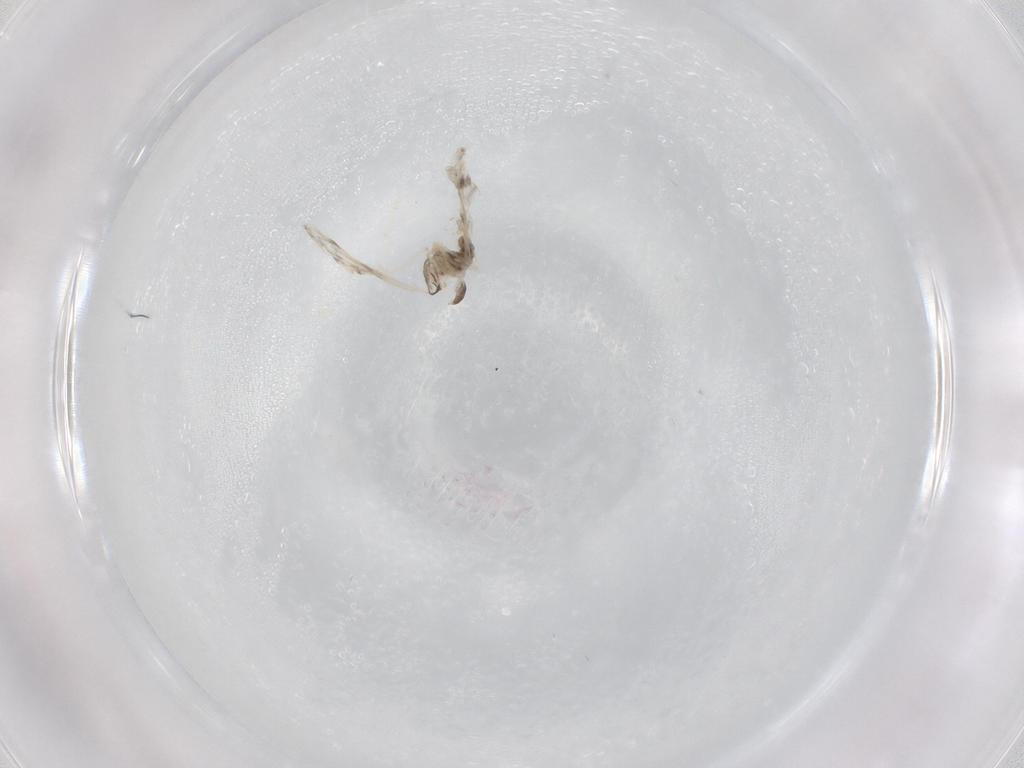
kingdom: Animalia
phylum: Arthropoda
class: Insecta
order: Diptera
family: Cecidomyiidae
